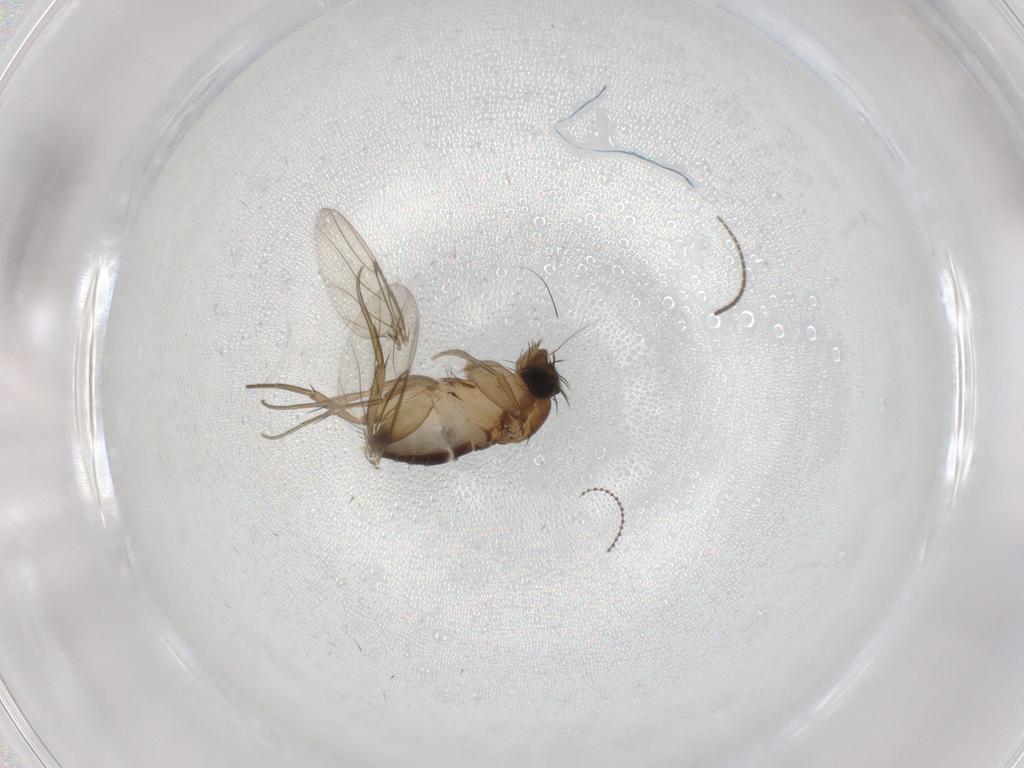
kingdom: Animalia
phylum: Arthropoda
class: Insecta
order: Diptera
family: Phoridae
